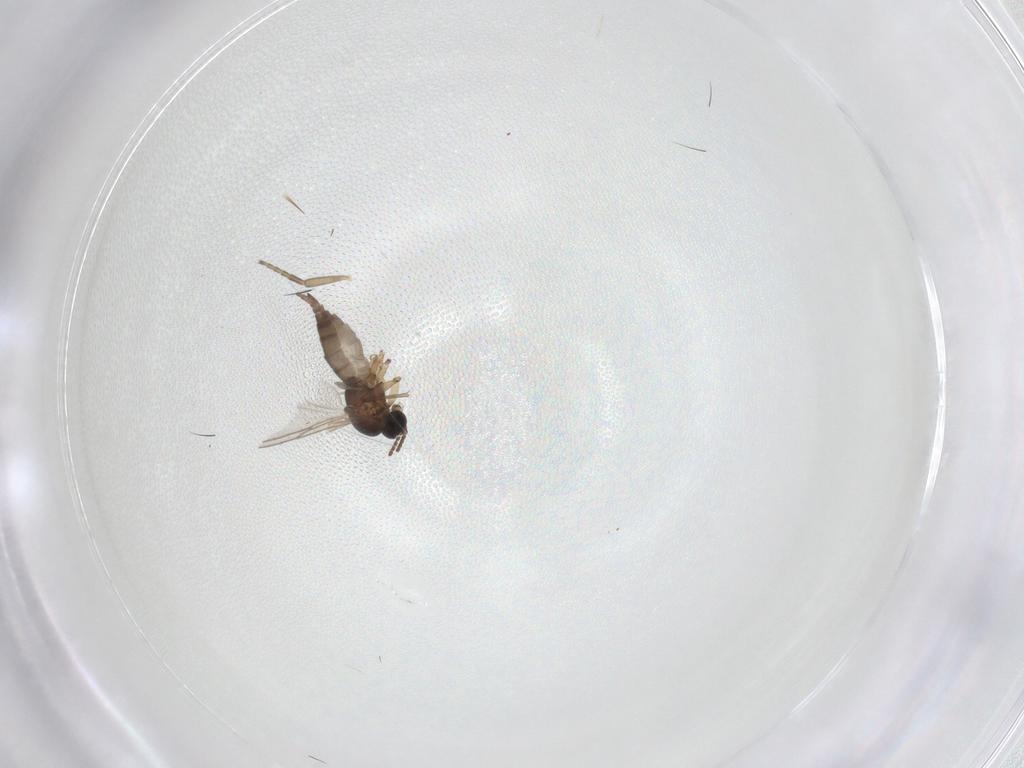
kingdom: Animalia
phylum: Arthropoda
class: Insecta
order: Diptera
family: Sciaridae
